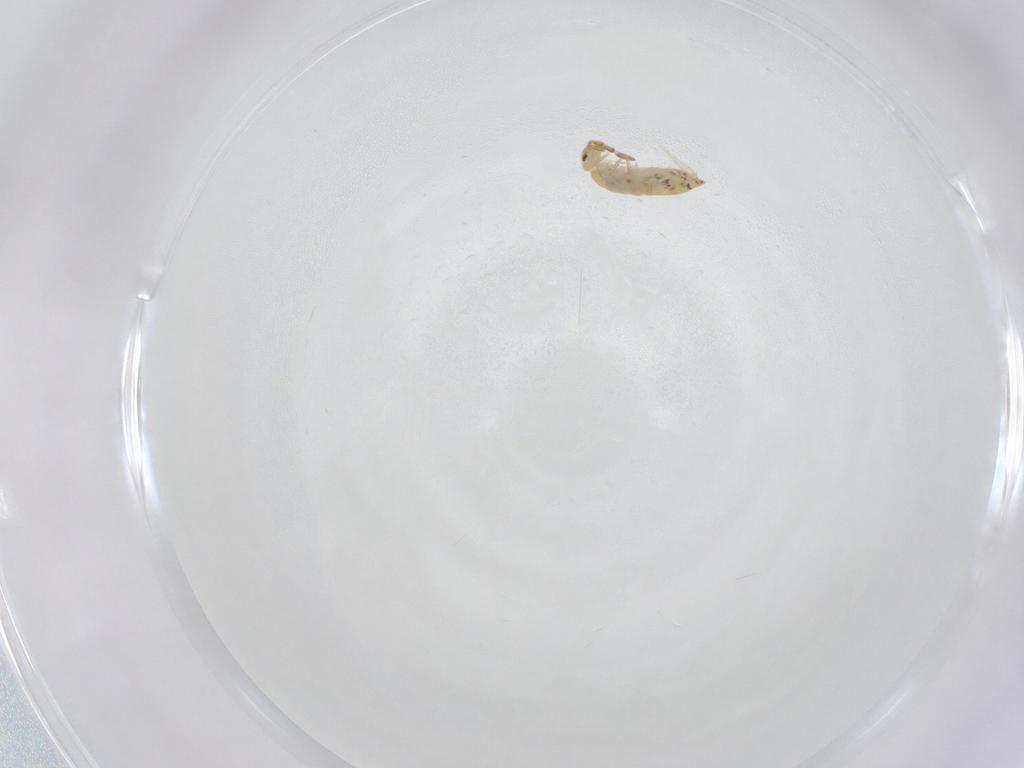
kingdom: Animalia
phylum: Arthropoda
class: Collembola
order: Entomobryomorpha
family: Entomobryidae
